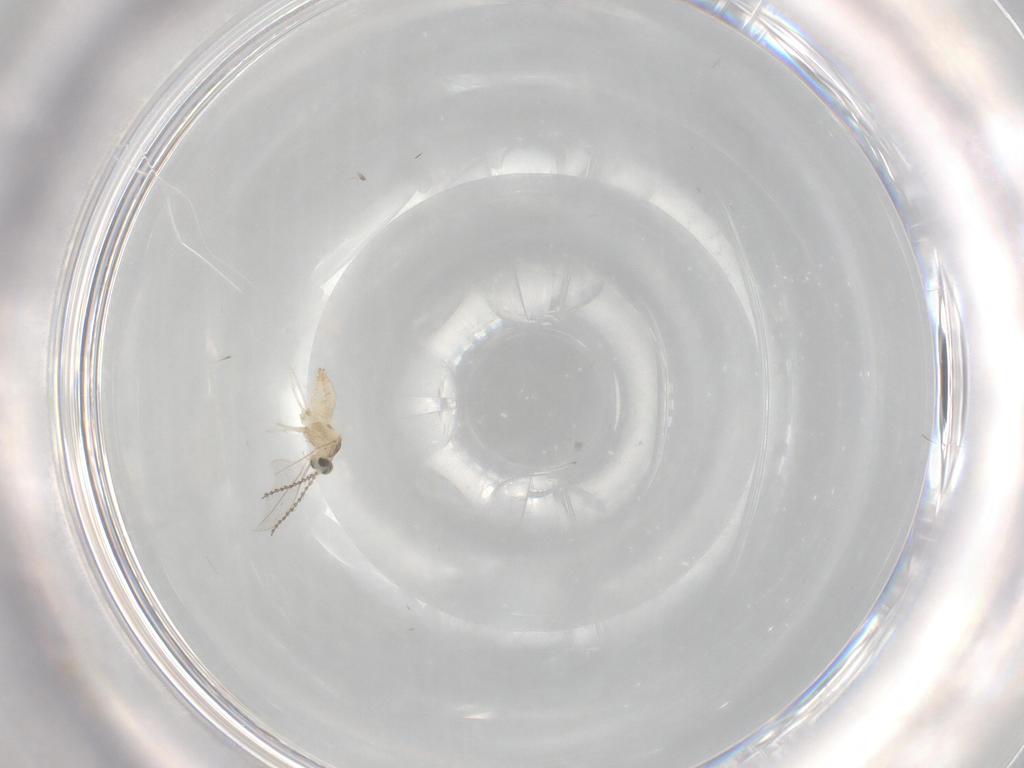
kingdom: Animalia
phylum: Arthropoda
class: Insecta
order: Diptera
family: Cecidomyiidae
